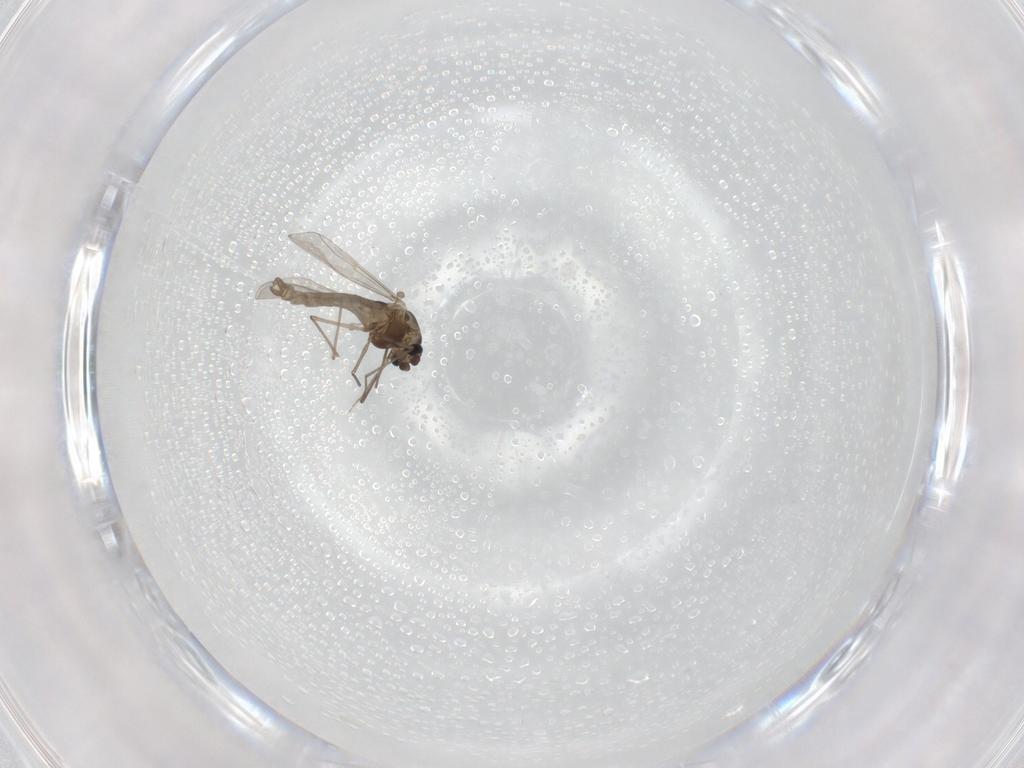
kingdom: Animalia
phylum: Arthropoda
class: Insecta
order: Diptera
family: Chironomidae
